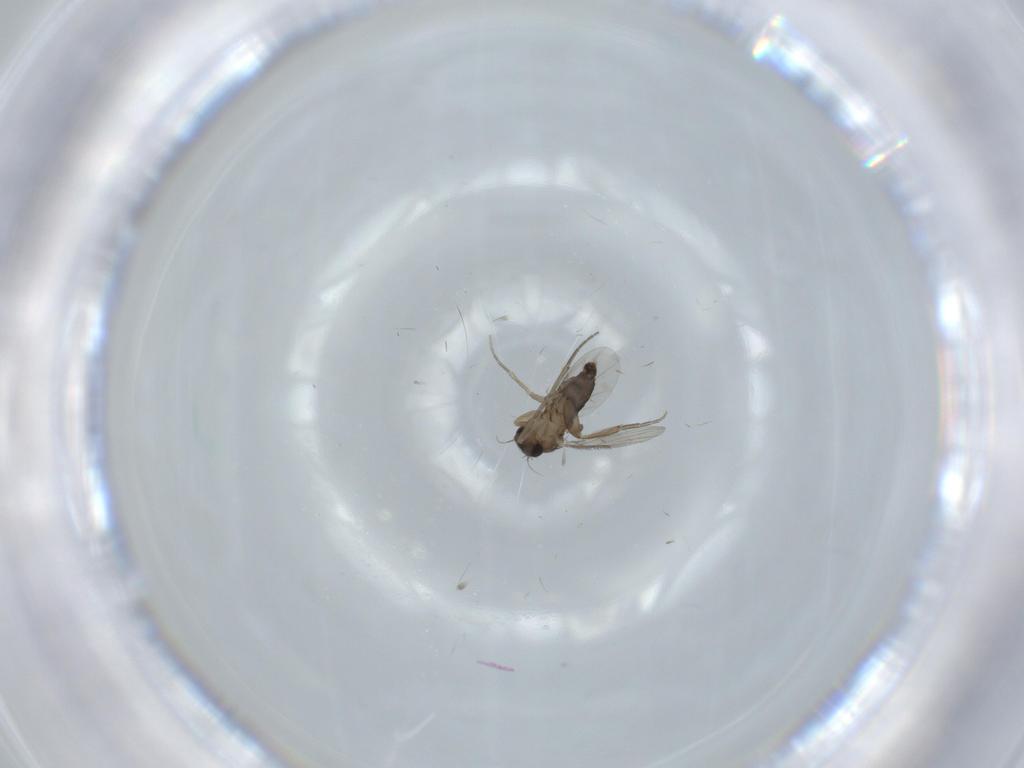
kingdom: Animalia
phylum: Arthropoda
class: Insecta
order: Diptera
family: Phoridae
